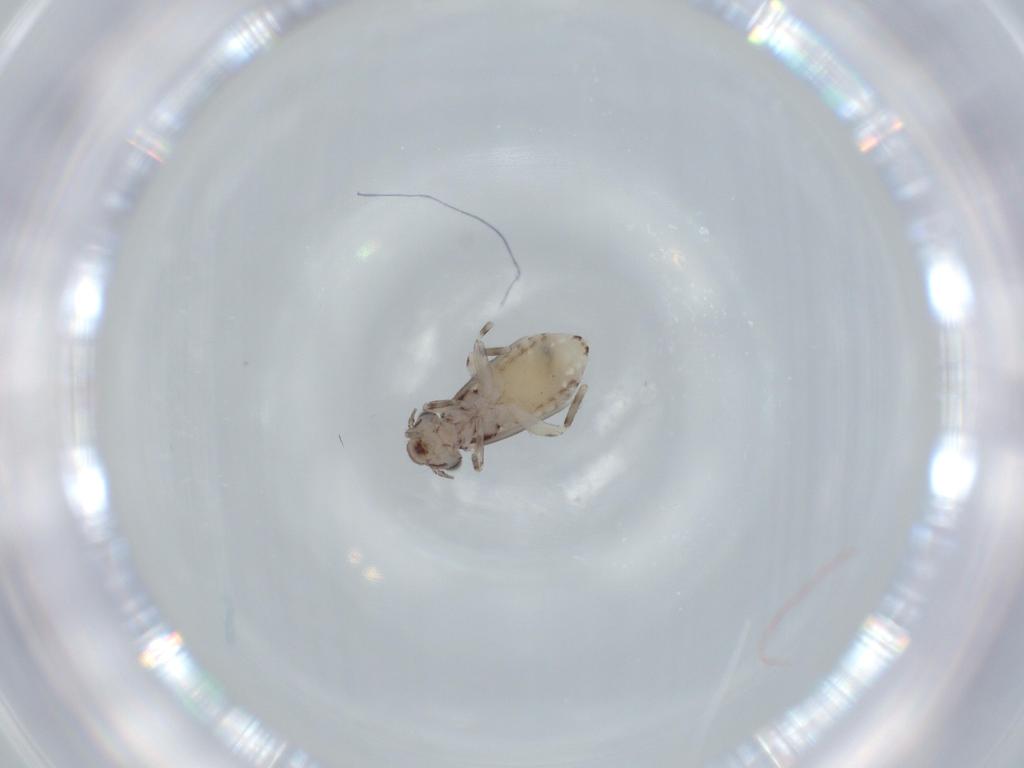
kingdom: Animalia
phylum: Arthropoda
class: Insecta
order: Psocodea
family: Lepidopsocidae
